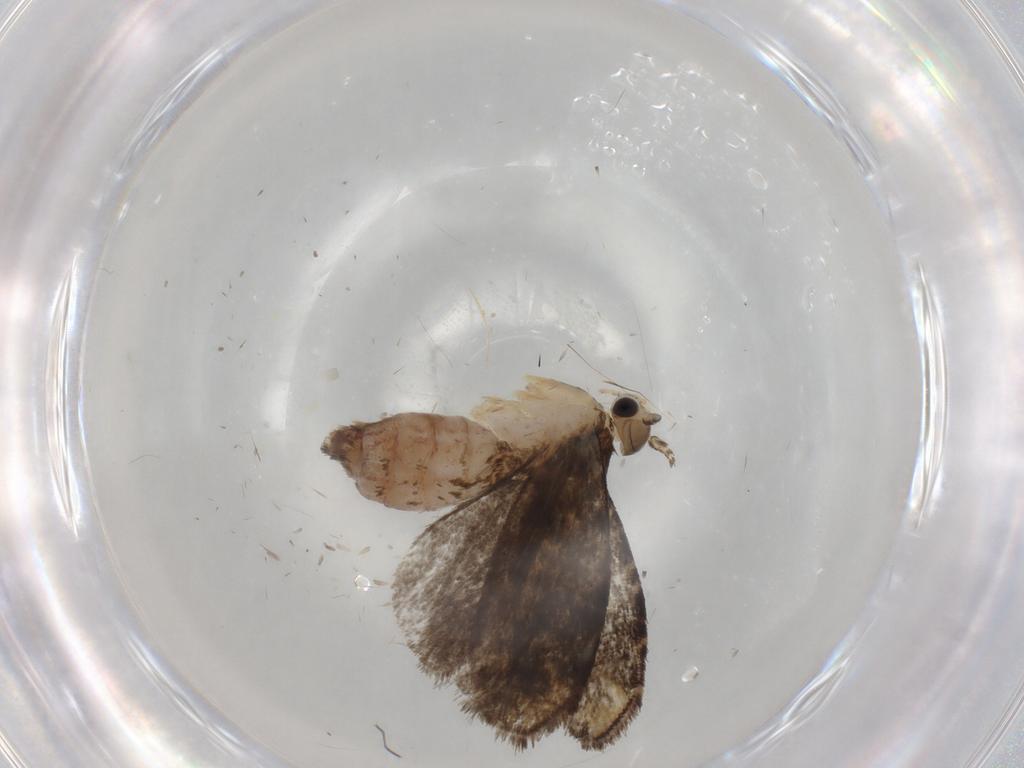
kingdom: Animalia
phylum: Arthropoda
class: Insecta
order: Lepidoptera
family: Tineidae
